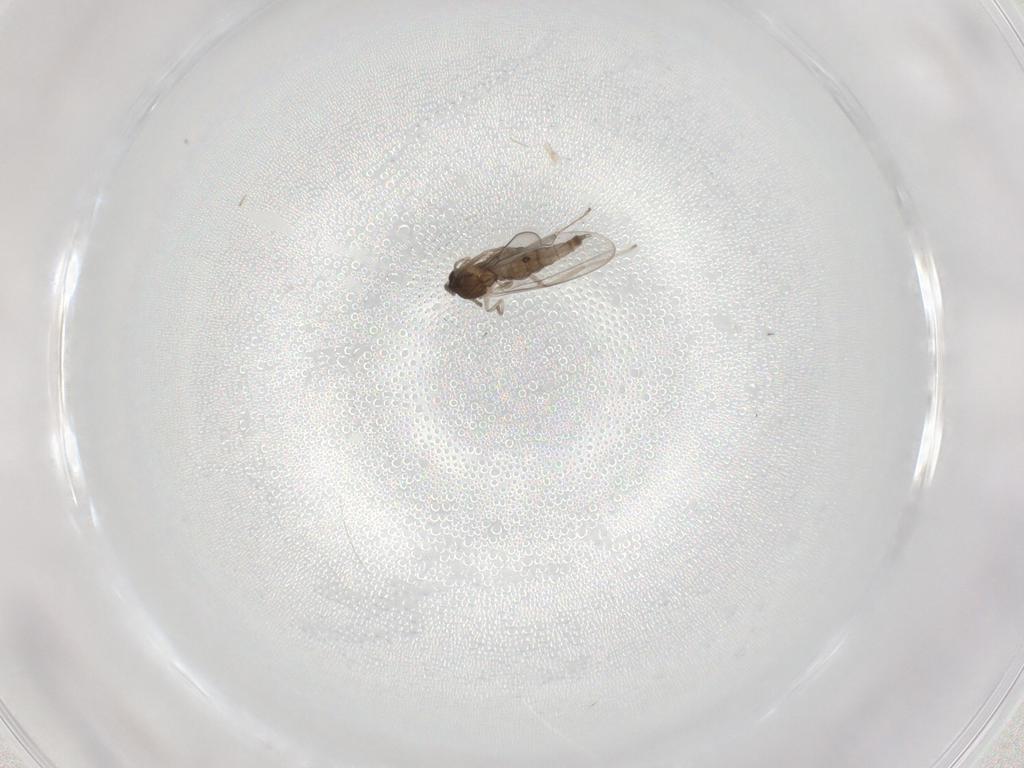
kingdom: Animalia
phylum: Arthropoda
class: Insecta
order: Diptera
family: Cecidomyiidae
